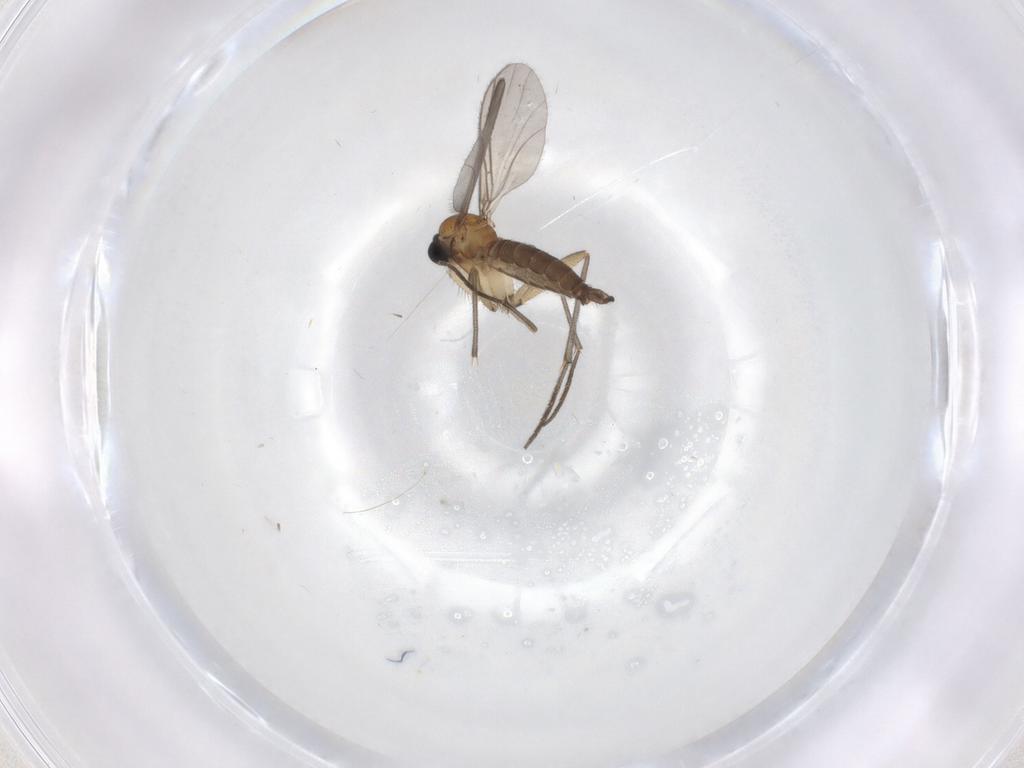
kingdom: Animalia
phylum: Arthropoda
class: Insecta
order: Diptera
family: Sciaridae
